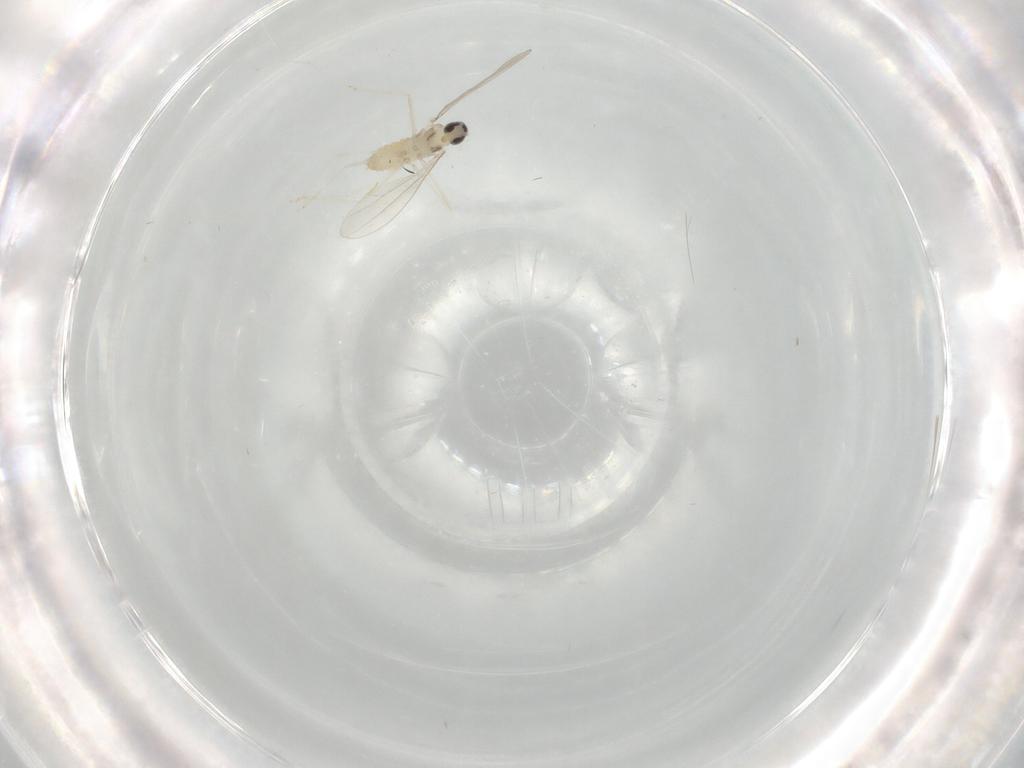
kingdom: Animalia
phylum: Arthropoda
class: Insecta
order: Diptera
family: Cecidomyiidae
